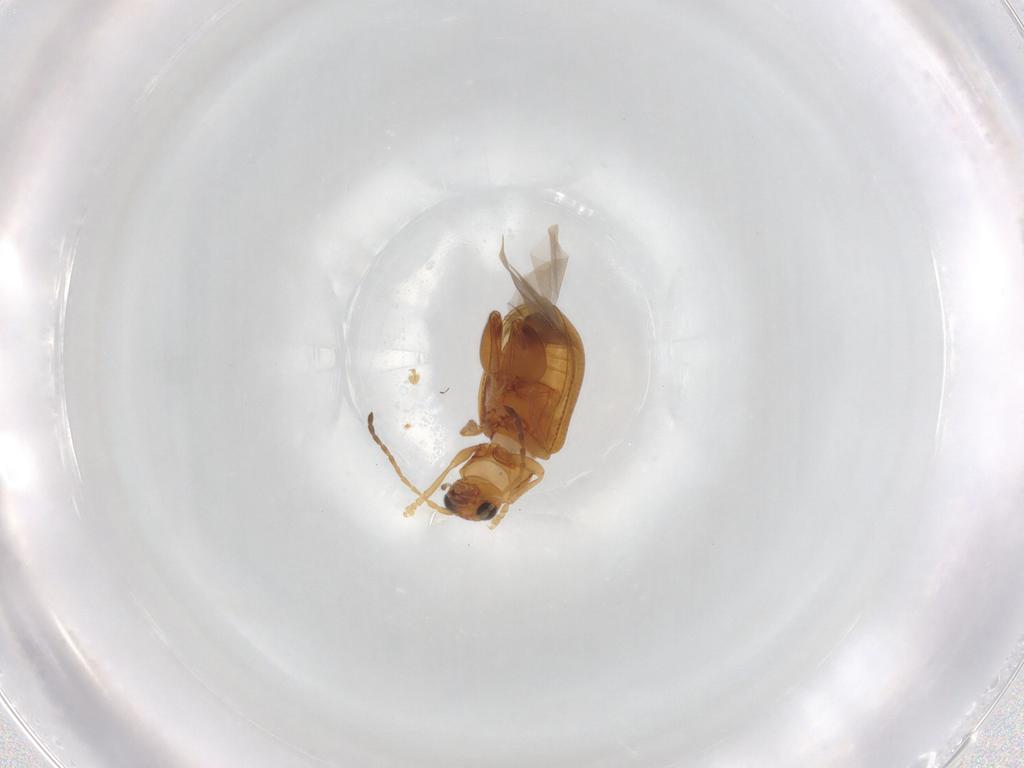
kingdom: Animalia
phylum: Arthropoda
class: Insecta
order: Coleoptera
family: Chrysomelidae
